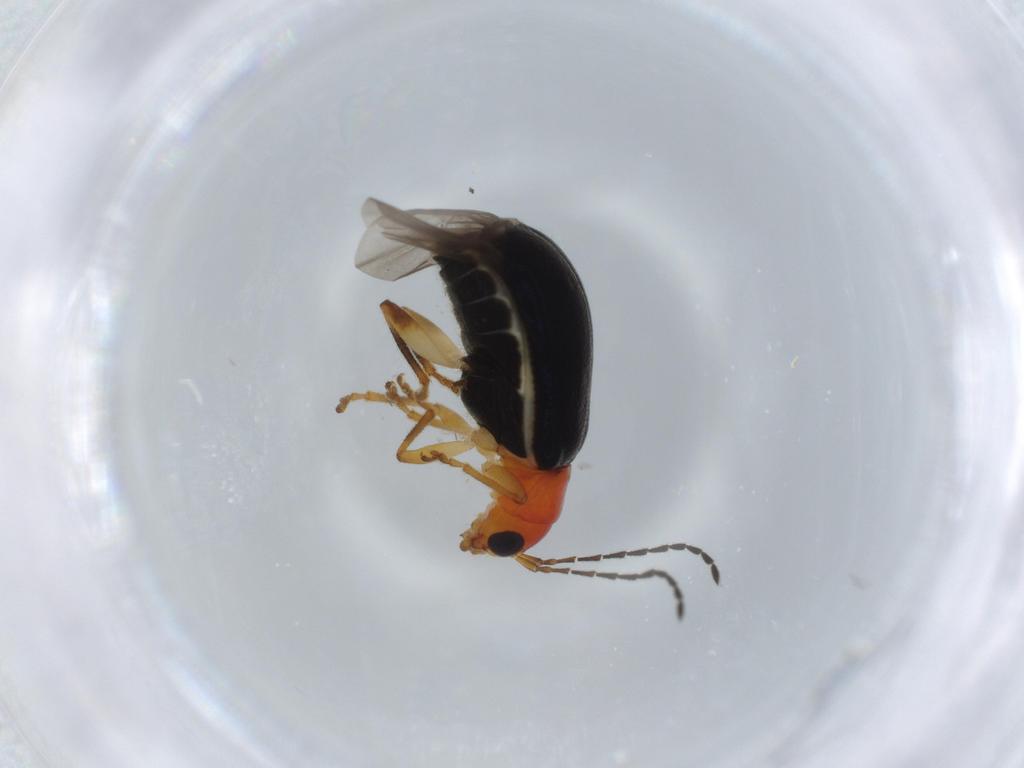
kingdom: Animalia
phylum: Arthropoda
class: Insecta
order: Coleoptera
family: Chrysomelidae
